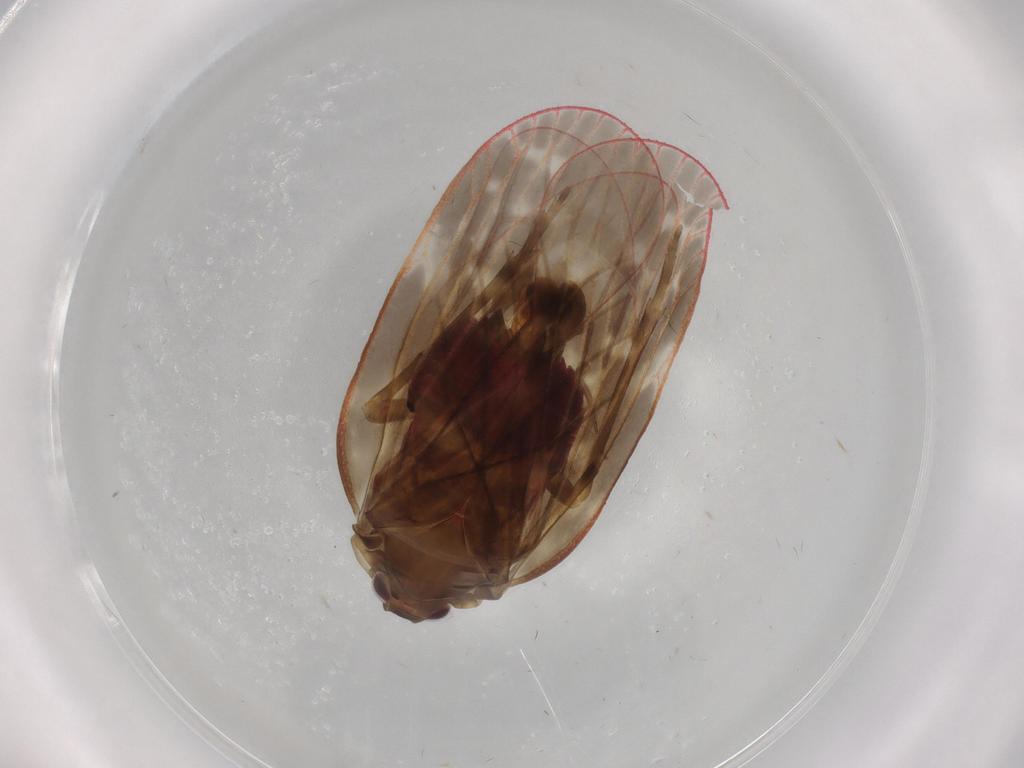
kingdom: Animalia
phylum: Arthropoda
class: Insecta
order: Hemiptera
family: Achilidae
